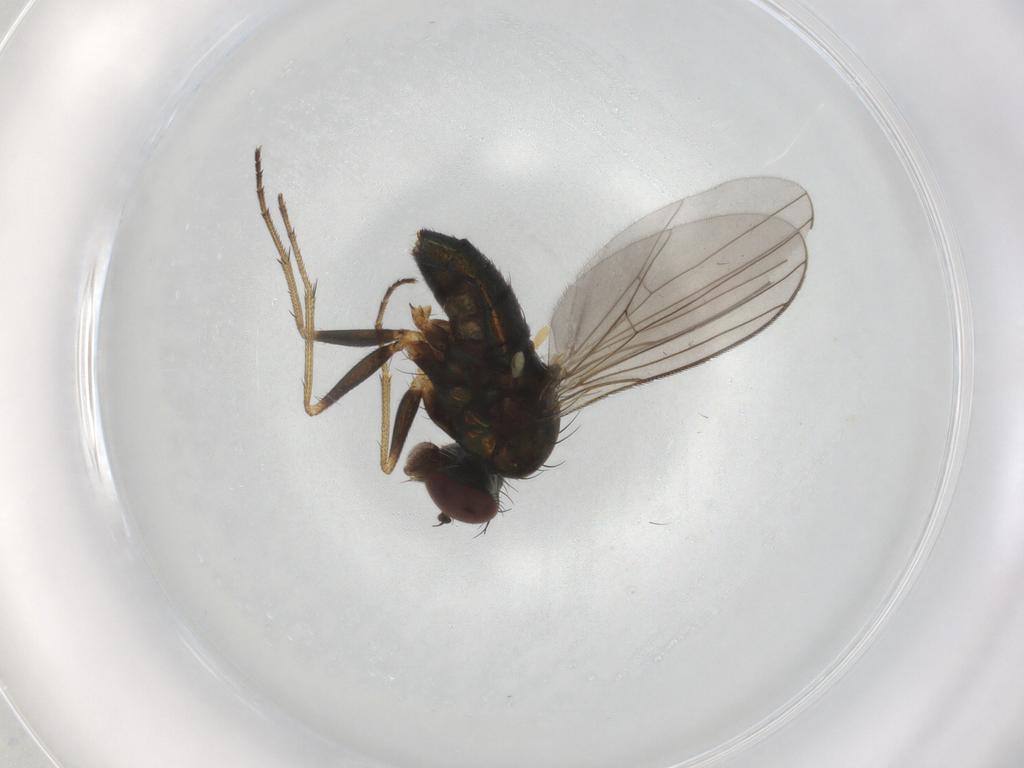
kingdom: Animalia
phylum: Arthropoda
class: Insecta
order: Diptera
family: Dolichopodidae
